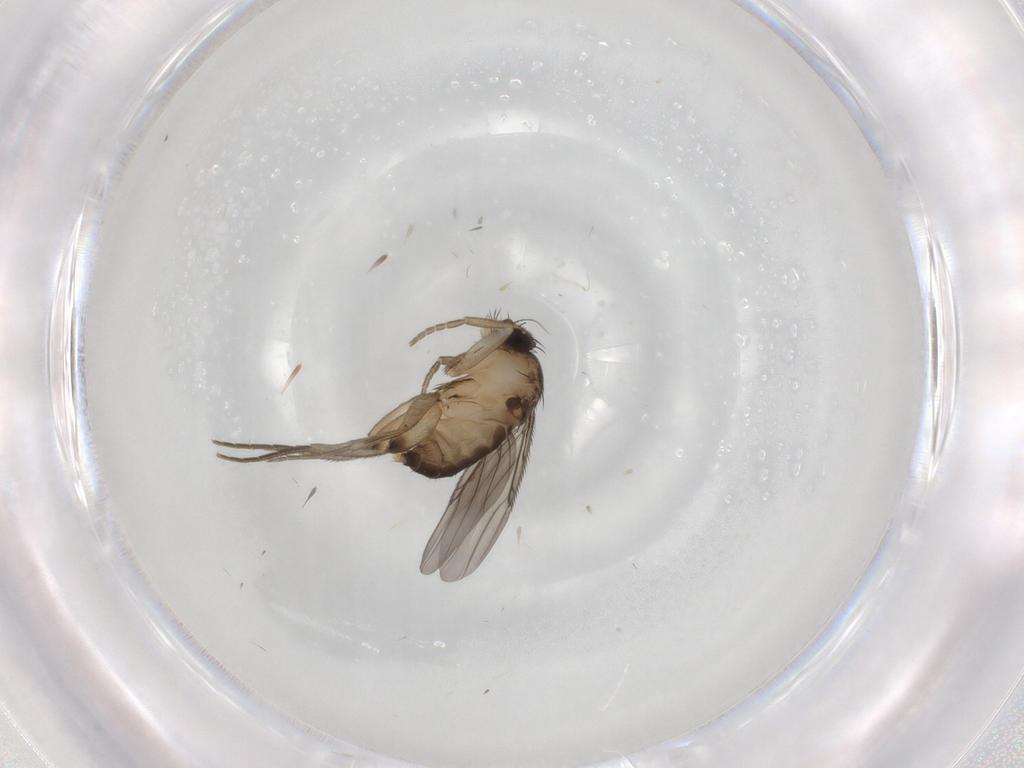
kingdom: Animalia
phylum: Arthropoda
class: Insecta
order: Diptera
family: Phoridae
